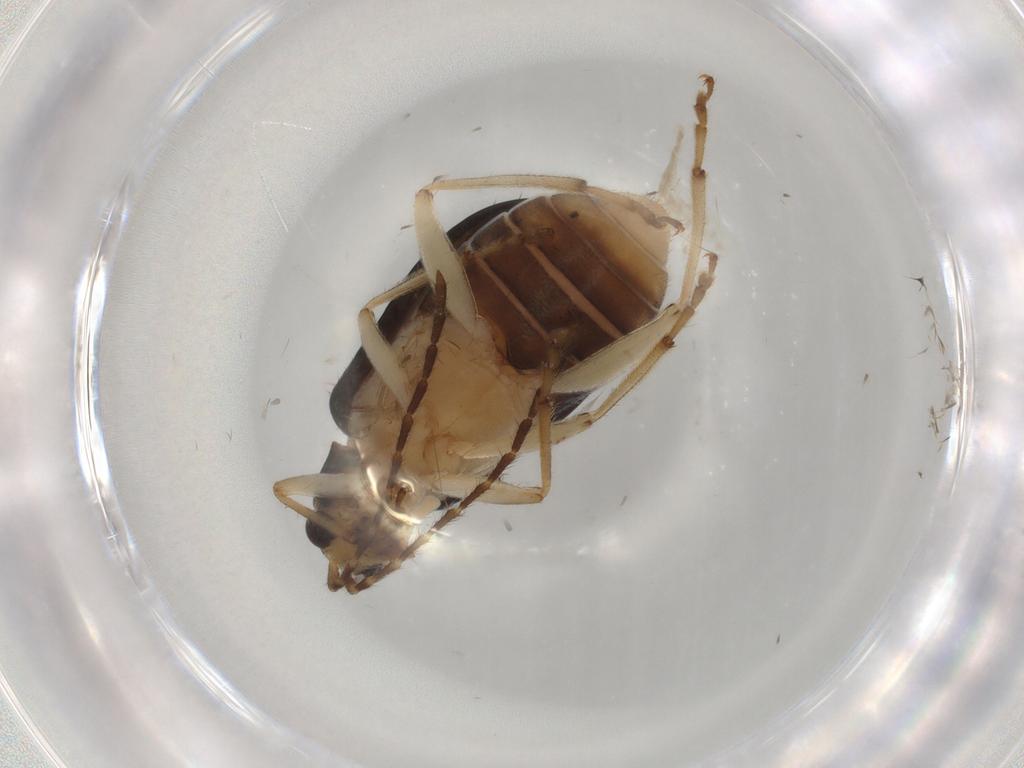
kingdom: Animalia
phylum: Arthropoda
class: Insecta
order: Coleoptera
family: Chrysomelidae
